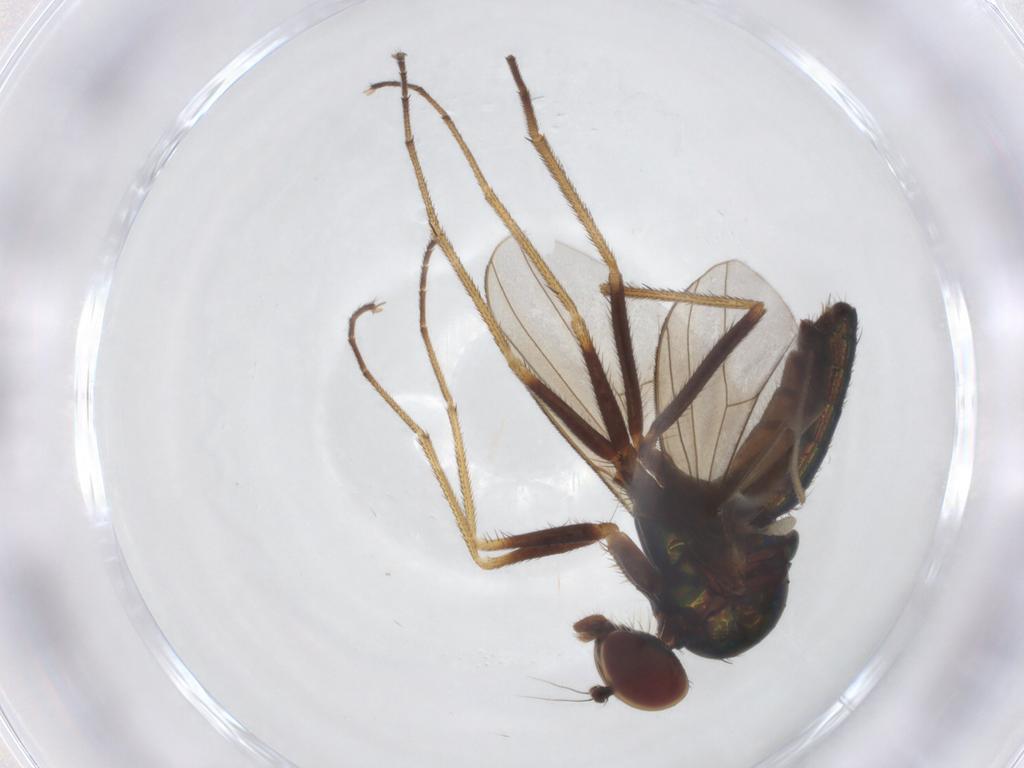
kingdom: Animalia
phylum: Arthropoda
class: Insecta
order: Diptera
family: Dolichopodidae
